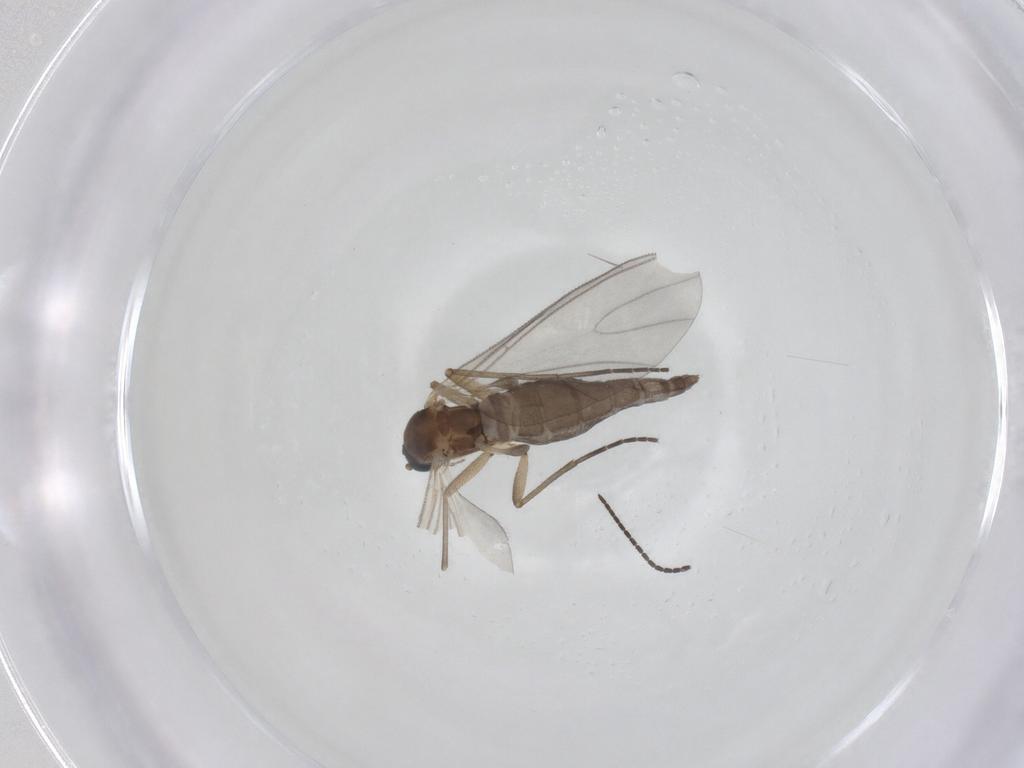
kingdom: Animalia
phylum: Arthropoda
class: Insecta
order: Diptera
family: Sciaridae
